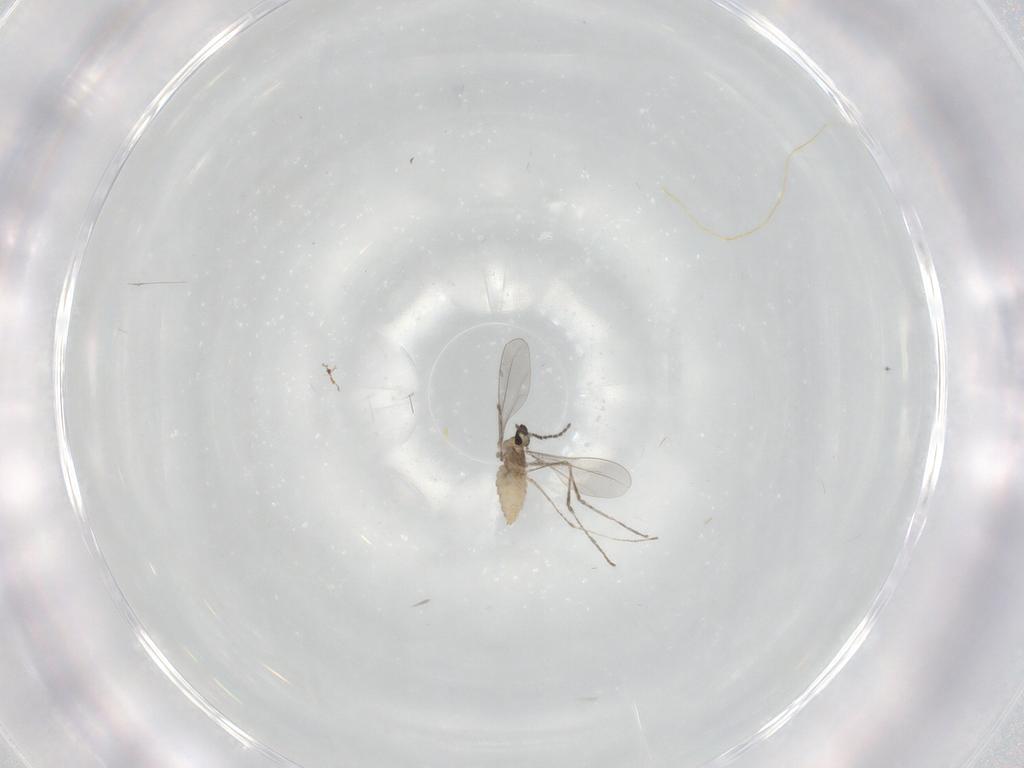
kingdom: Animalia
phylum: Arthropoda
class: Insecta
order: Diptera
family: Cecidomyiidae
